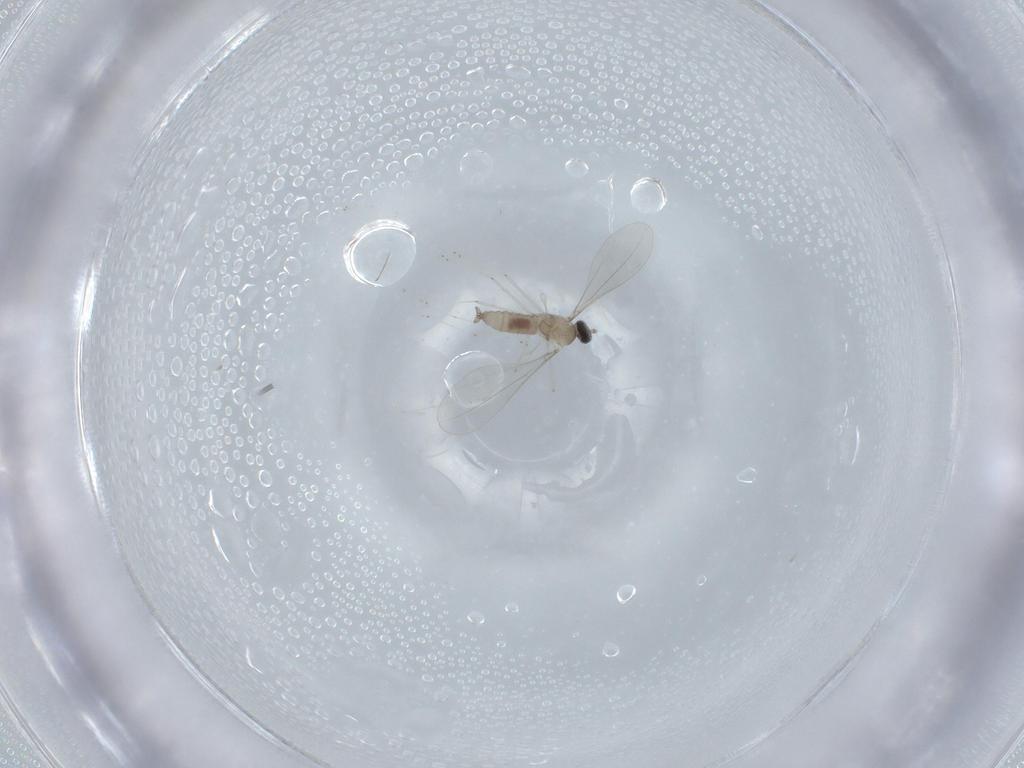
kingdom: Animalia
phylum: Arthropoda
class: Insecta
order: Diptera
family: Cecidomyiidae
